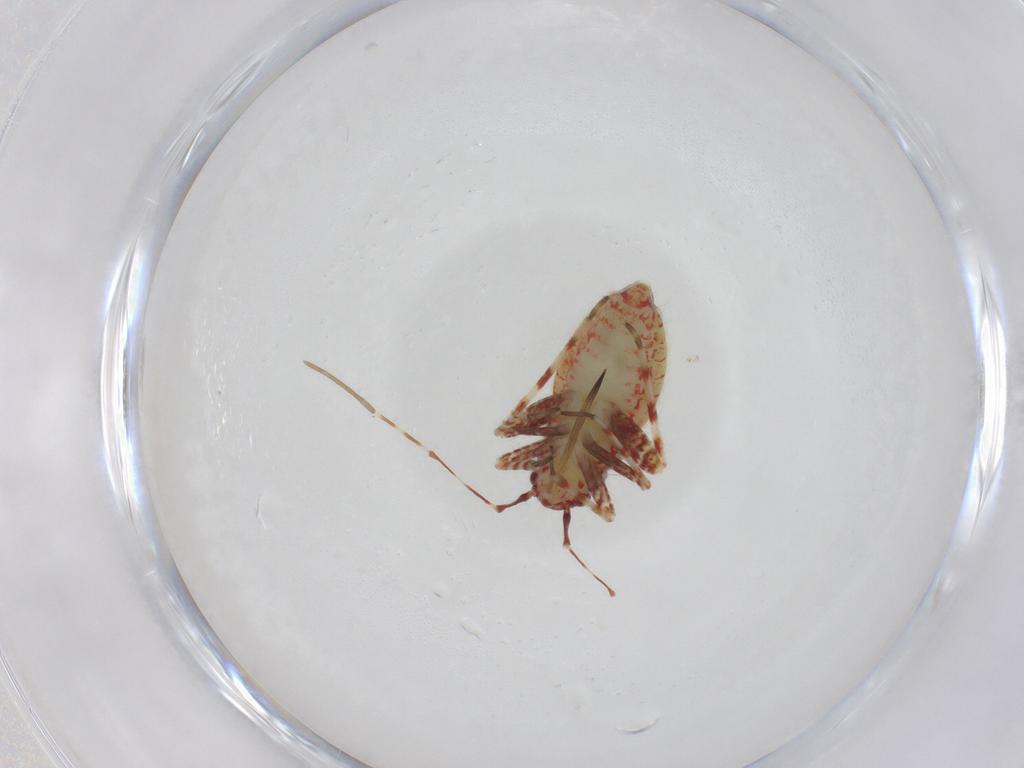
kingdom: Animalia
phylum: Arthropoda
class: Insecta
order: Hemiptera
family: Miridae
